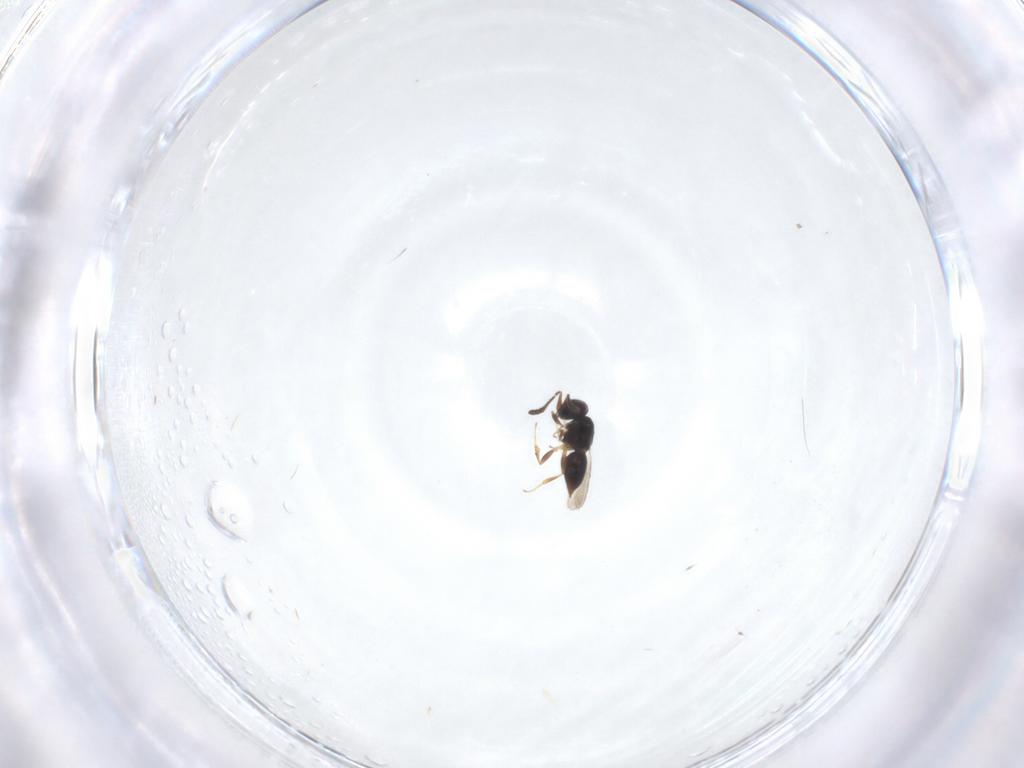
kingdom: Animalia
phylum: Arthropoda
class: Insecta
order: Hymenoptera
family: Ceraphronidae
